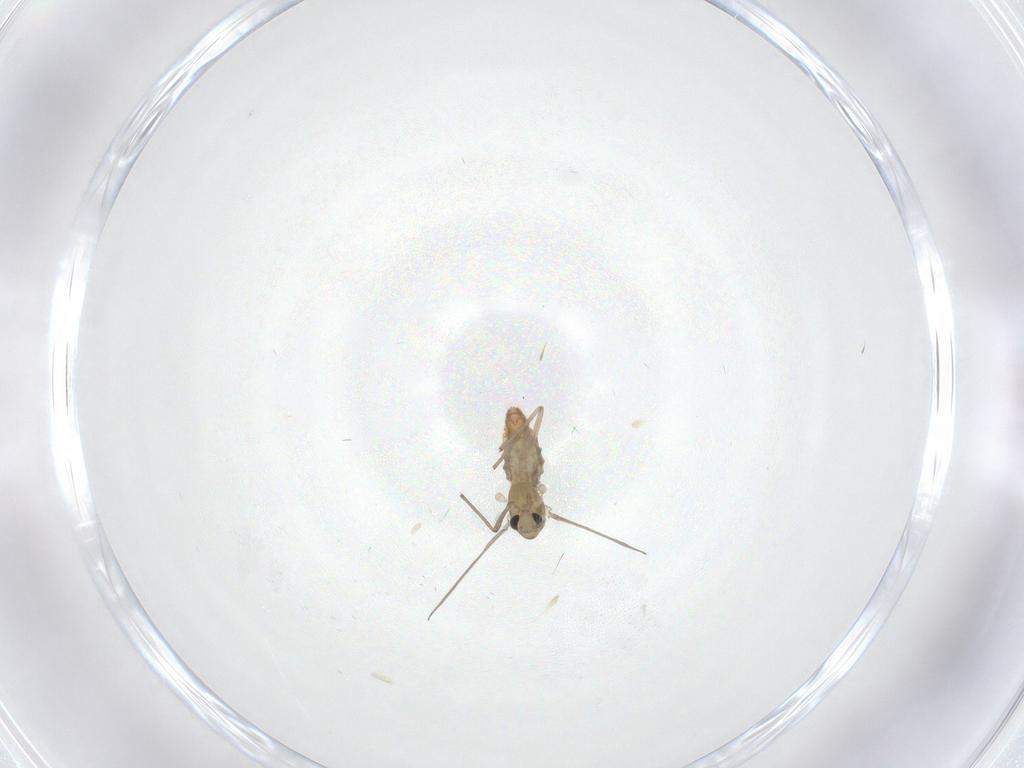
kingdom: Animalia
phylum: Arthropoda
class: Insecta
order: Diptera
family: Chironomidae
